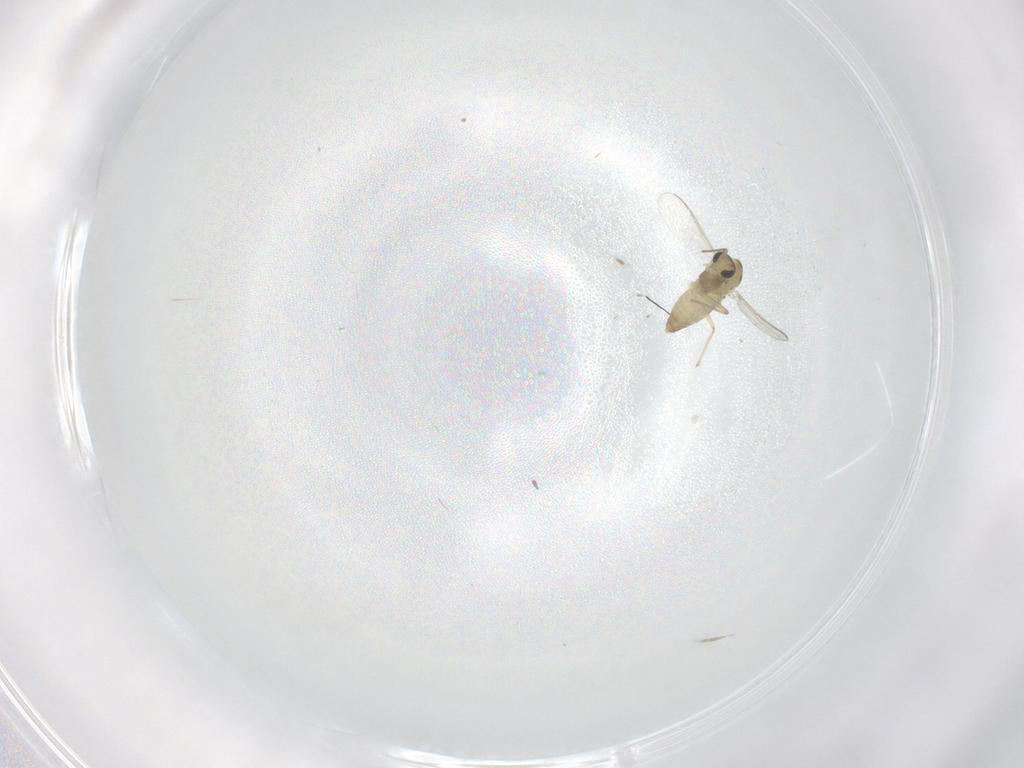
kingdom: Animalia
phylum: Arthropoda
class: Insecta
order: Diptera
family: Chironomidae
